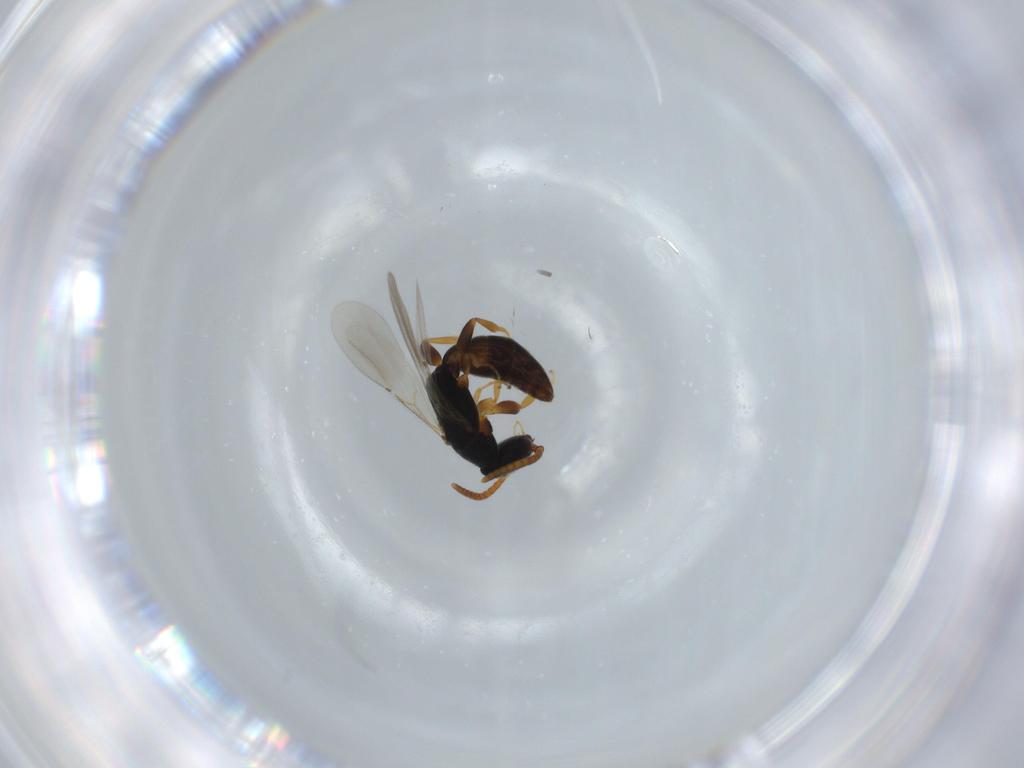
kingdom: Animalia
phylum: Arthropoda
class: Insecta
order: Hymenoptera
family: Bethylidae
